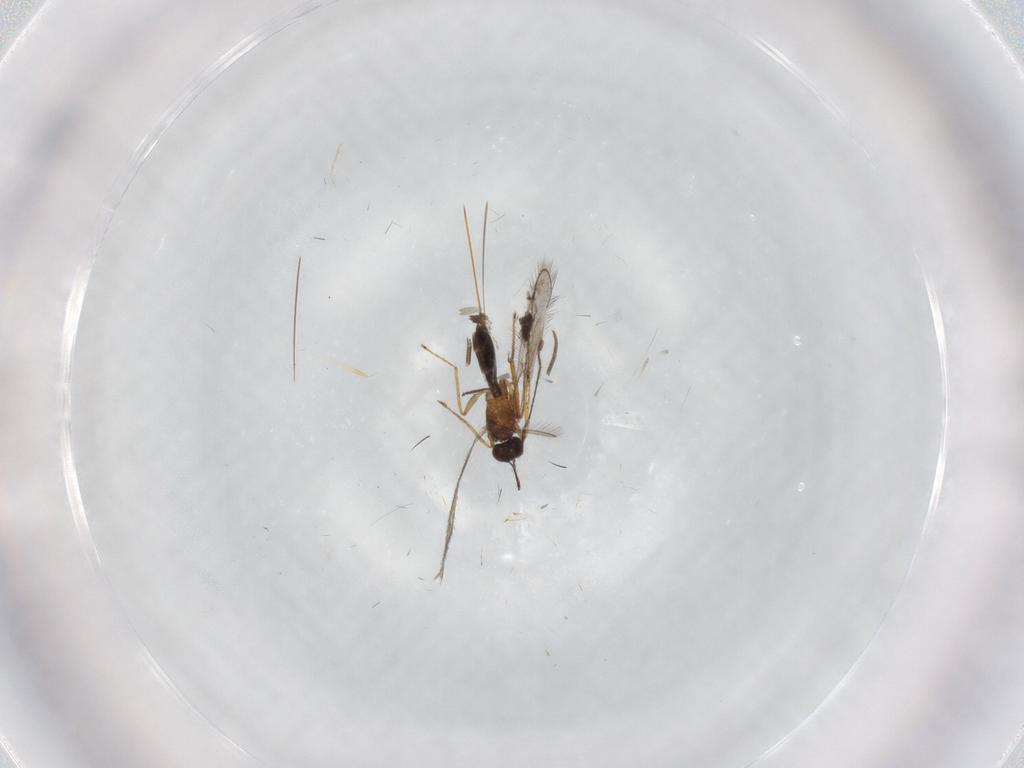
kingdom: Animalia
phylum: Arthropoda
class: Insecta
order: Hymenoptera
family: Mymaridae
